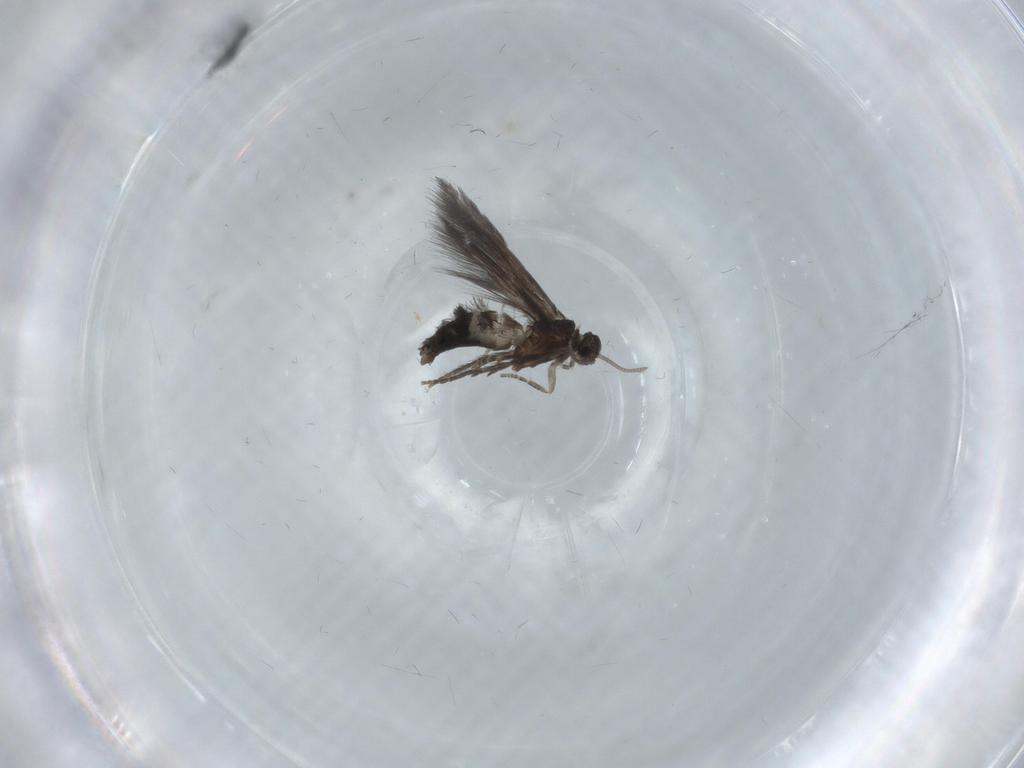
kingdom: Animalia
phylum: Arthropoda
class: Insecta
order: Trichoptera
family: Hydroptilidae
